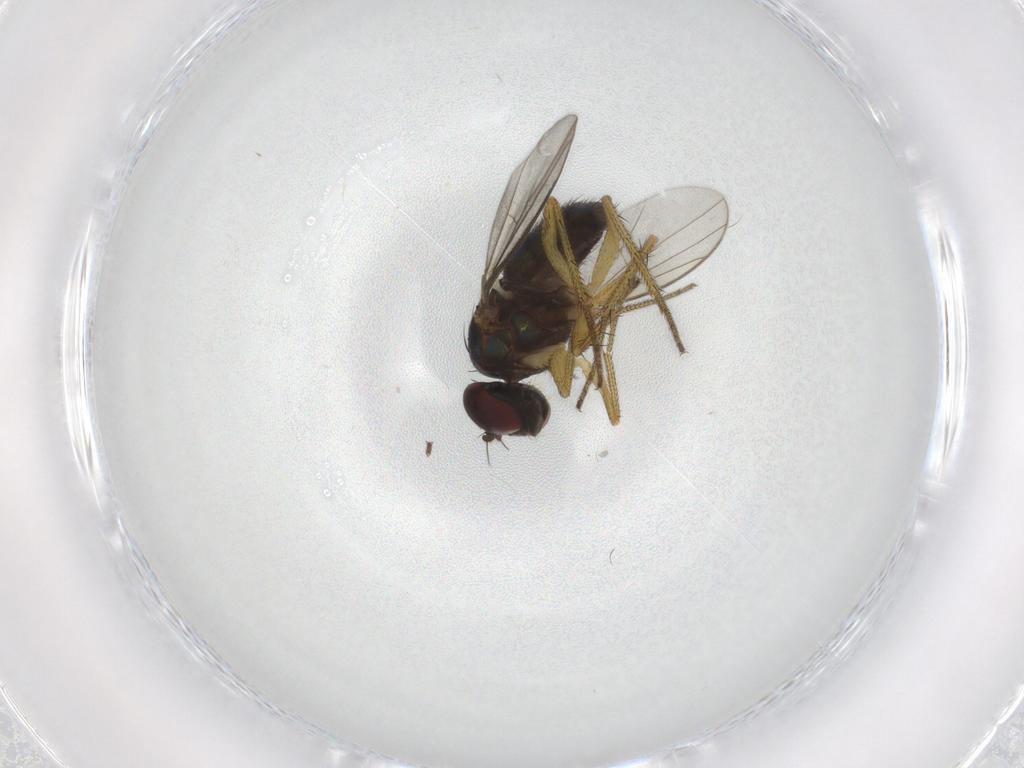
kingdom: Animalia
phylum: Arthropoda
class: Insecta
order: Diptera
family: Dolichopodidae
